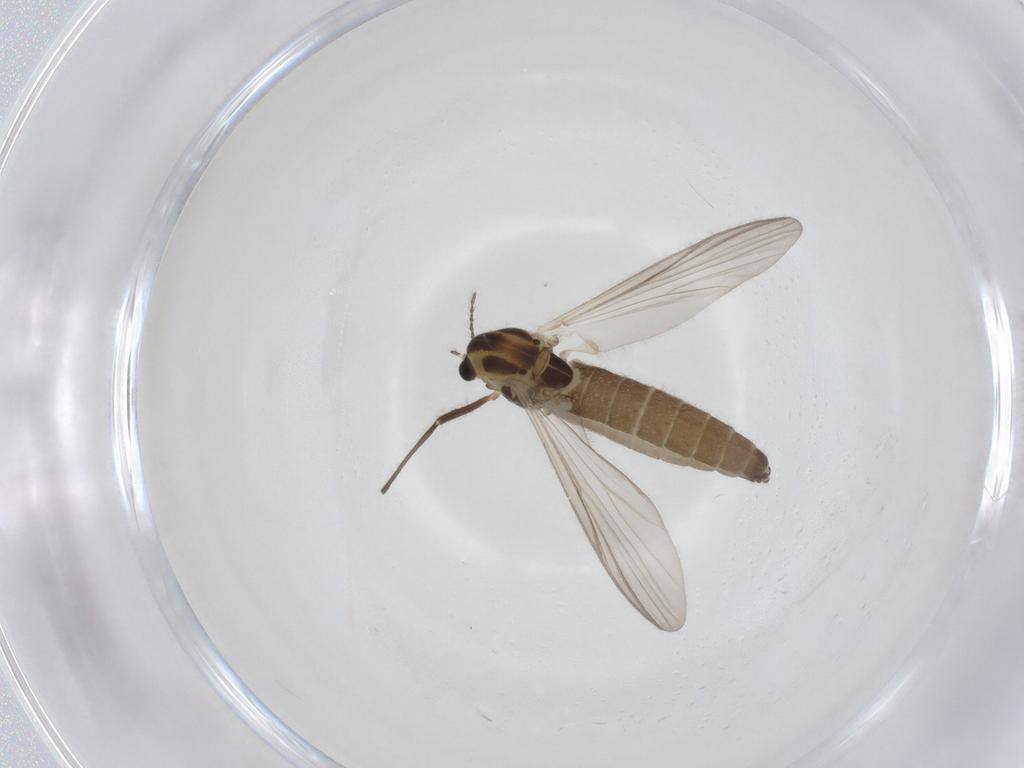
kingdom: Animalia
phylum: Arthropoda
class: Insecta
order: Diptera
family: Chironomidae
